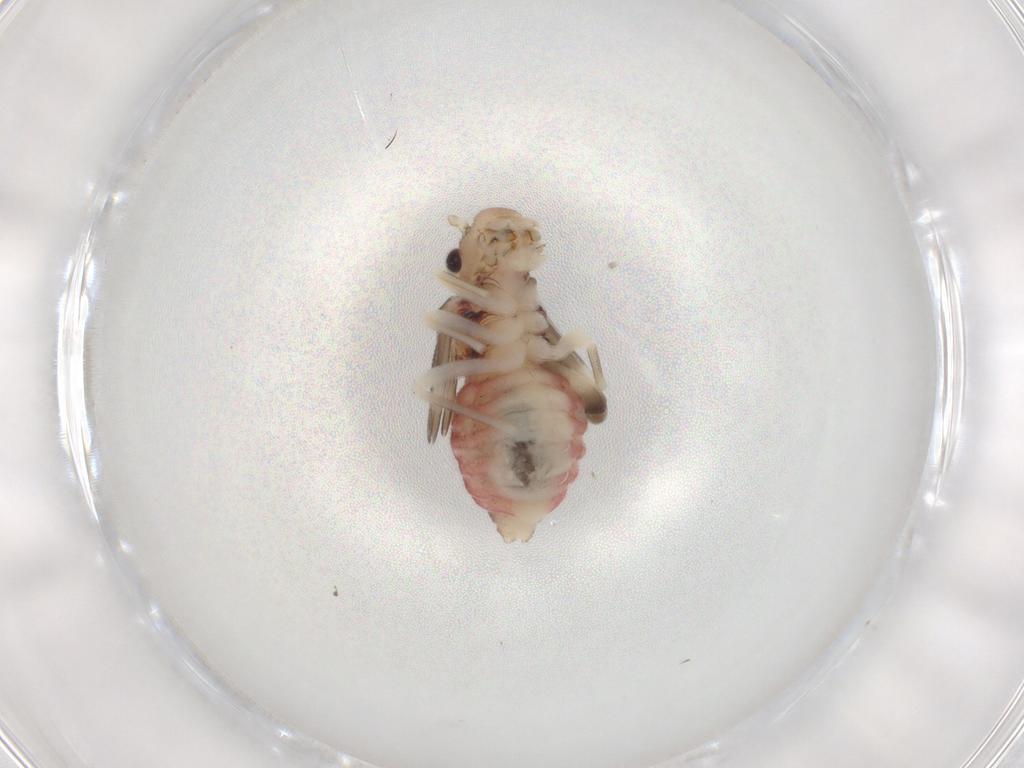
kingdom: Animalia
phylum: Arthropoda
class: Insecta
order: Psocodea
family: Amphipsocidae
